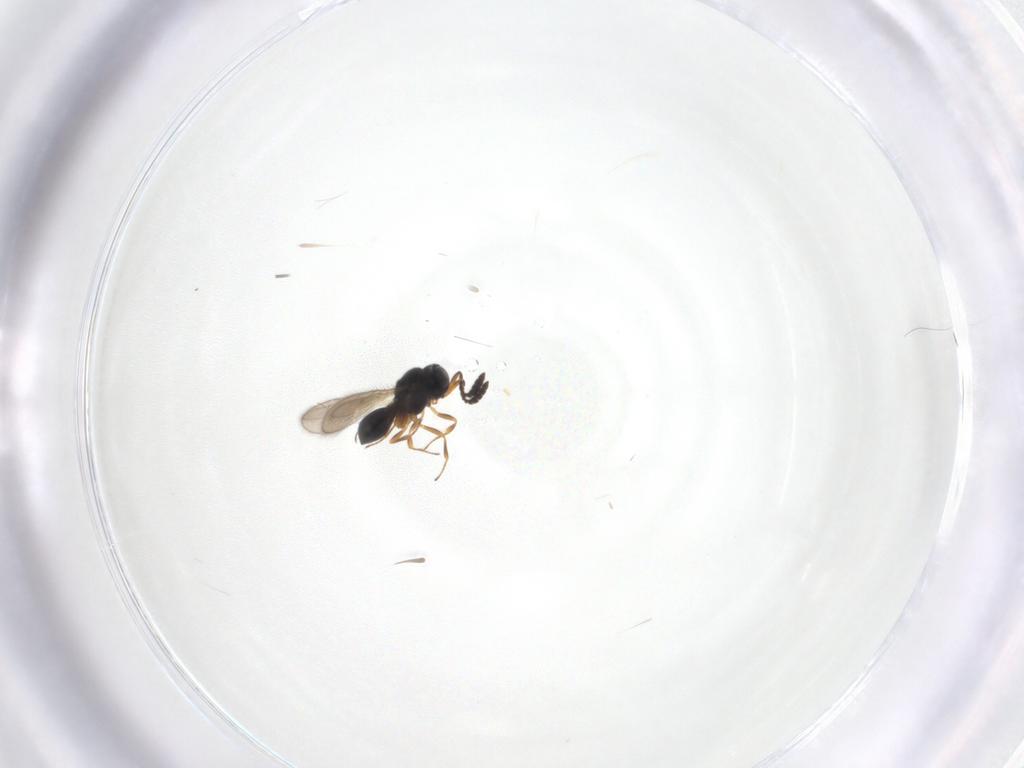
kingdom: Animalia
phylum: Arthropoda
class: Insecta
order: Hymenoptera
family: Scelionidae
